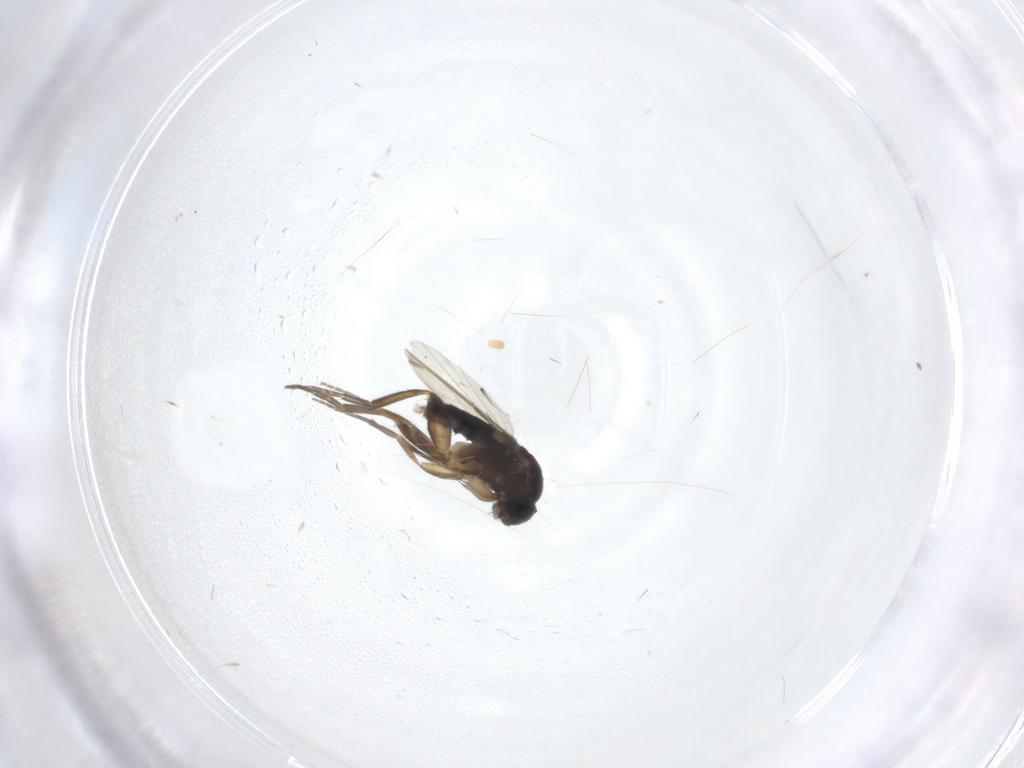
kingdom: Animalia
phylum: Arthropoda
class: Insecta
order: Diptera
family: Phoridae
